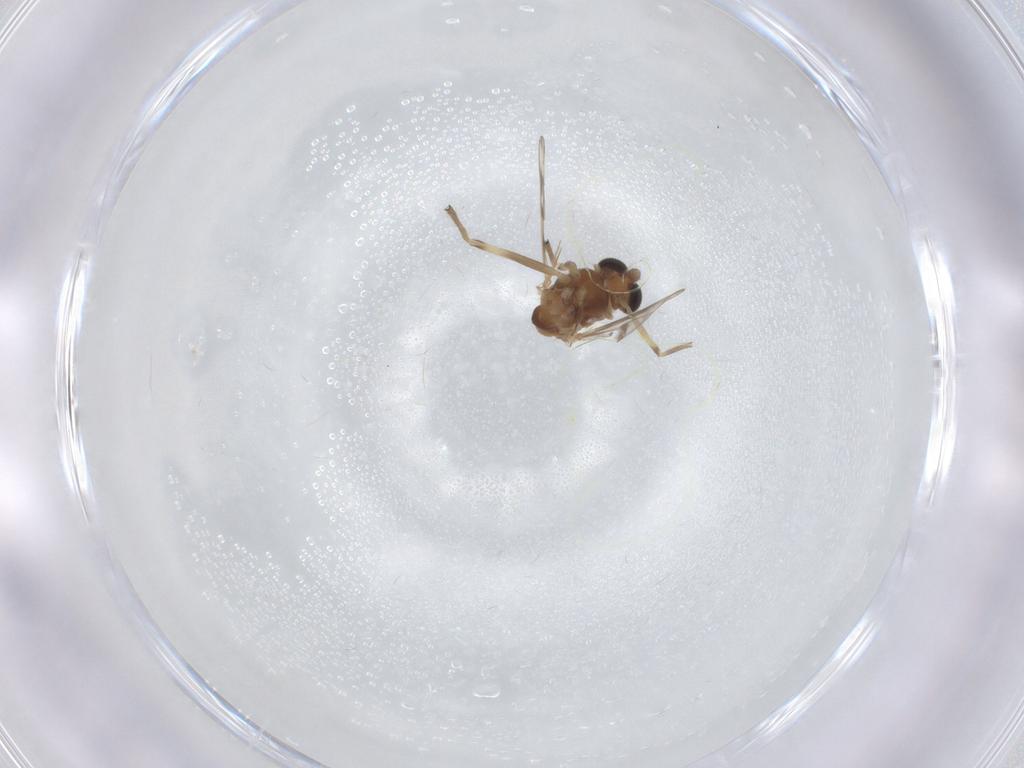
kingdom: Animalia
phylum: Arthropoda
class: Insecta
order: Diptera
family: Chironomidae
